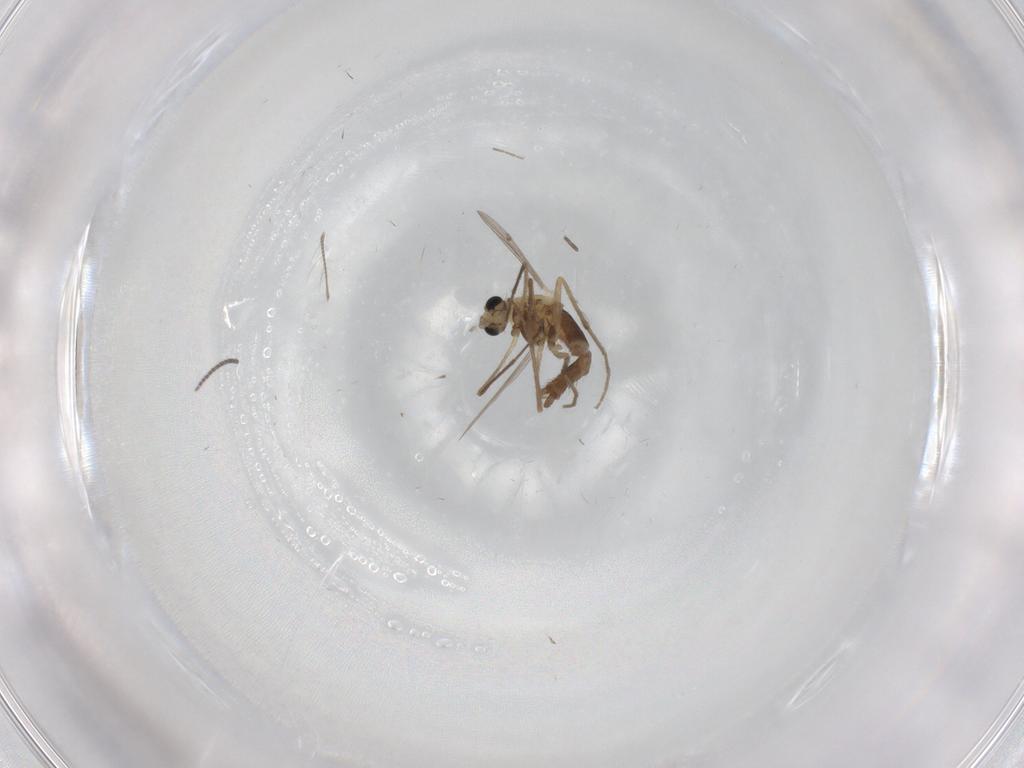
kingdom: Animalia
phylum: Arthropoda
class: Insecta
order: Diptera
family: Chironomidae
